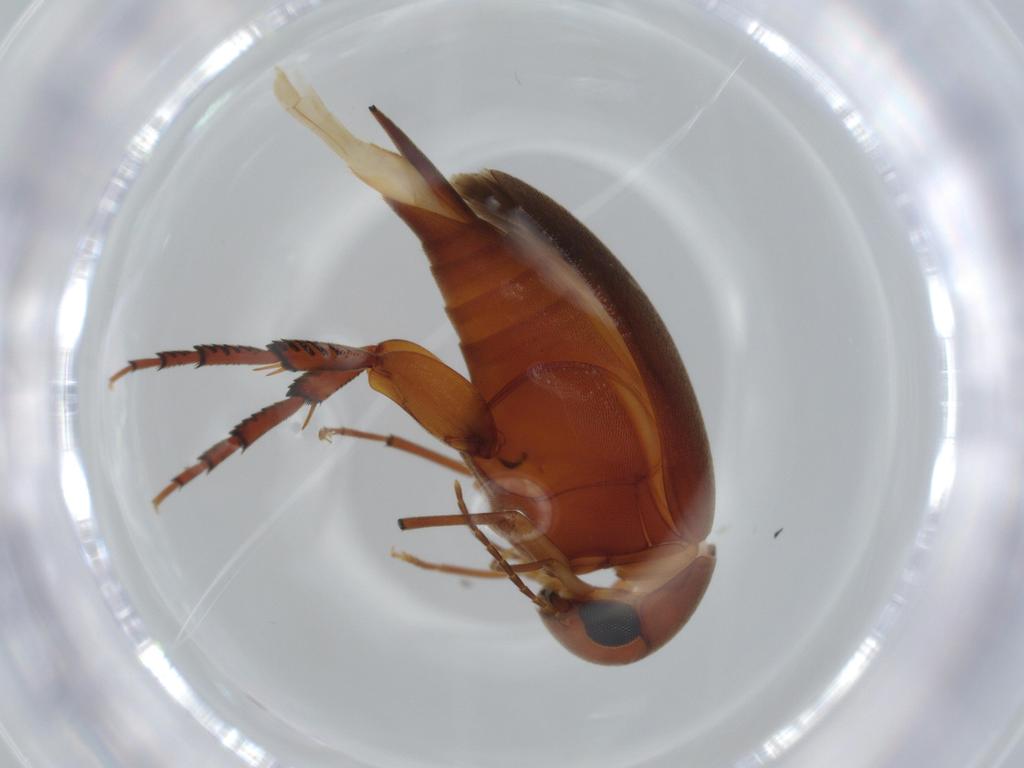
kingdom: Animalia
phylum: Arthropoda
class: Insecta
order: Coleoptera
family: Mordellidae
